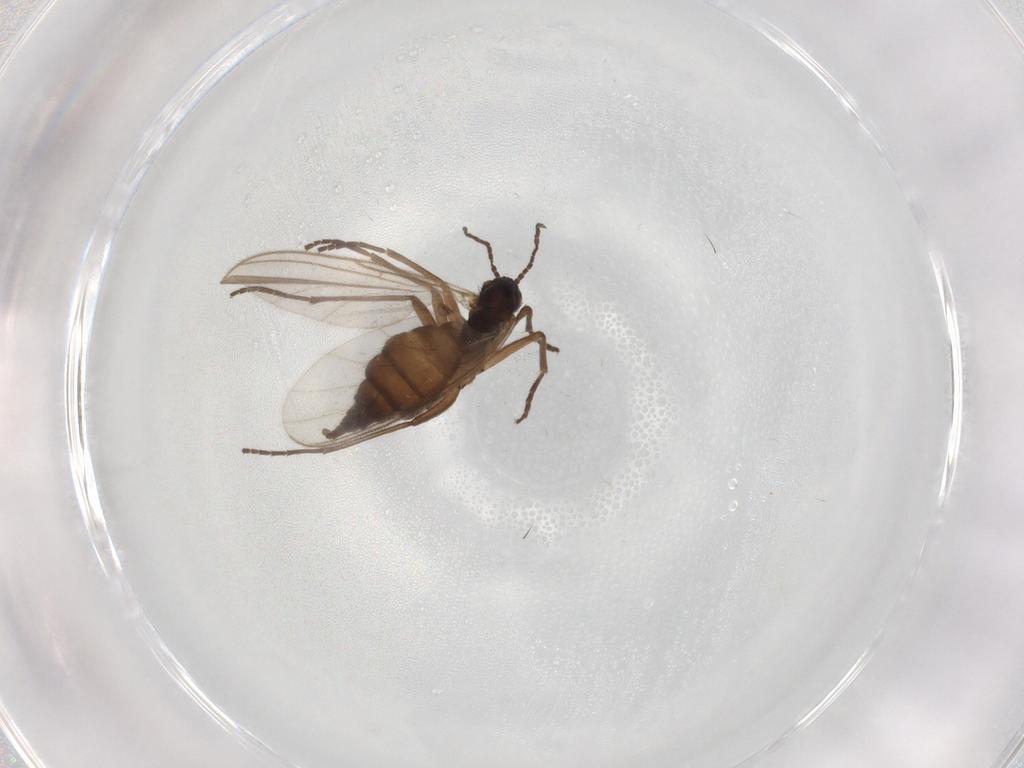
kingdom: Animalia
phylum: Arthropoda
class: Insecta
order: Diptera
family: Sciaridae
